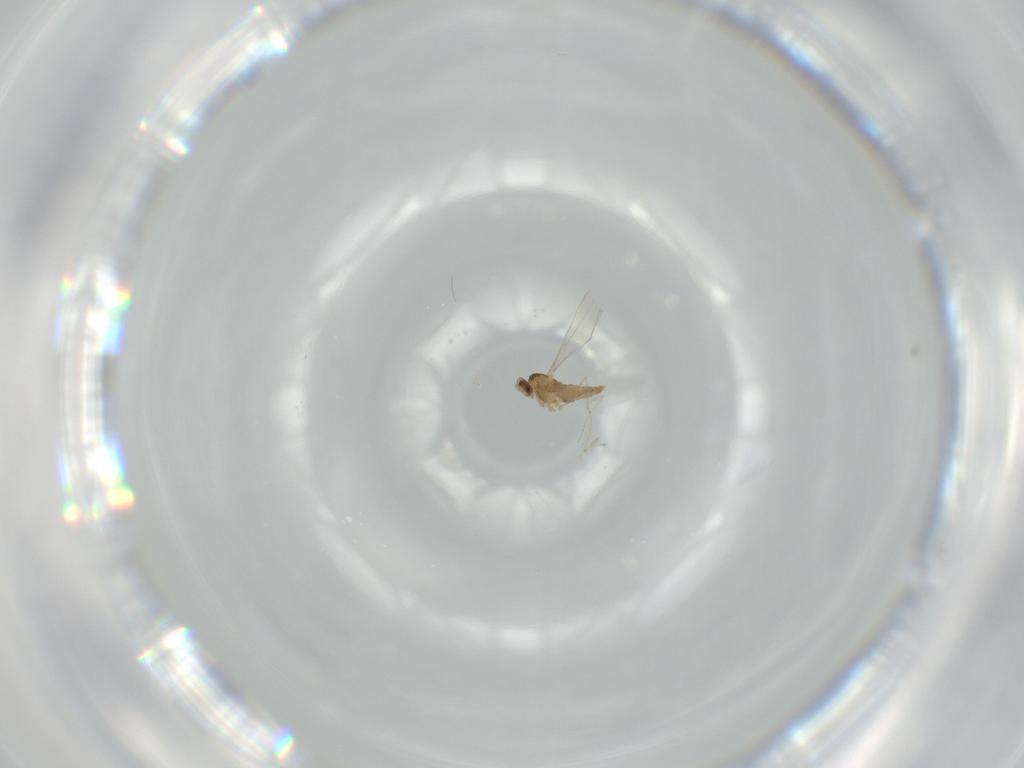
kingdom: Animalia
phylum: Arthropoda
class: Insecta
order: Diptera
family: Cecidomyiidae
